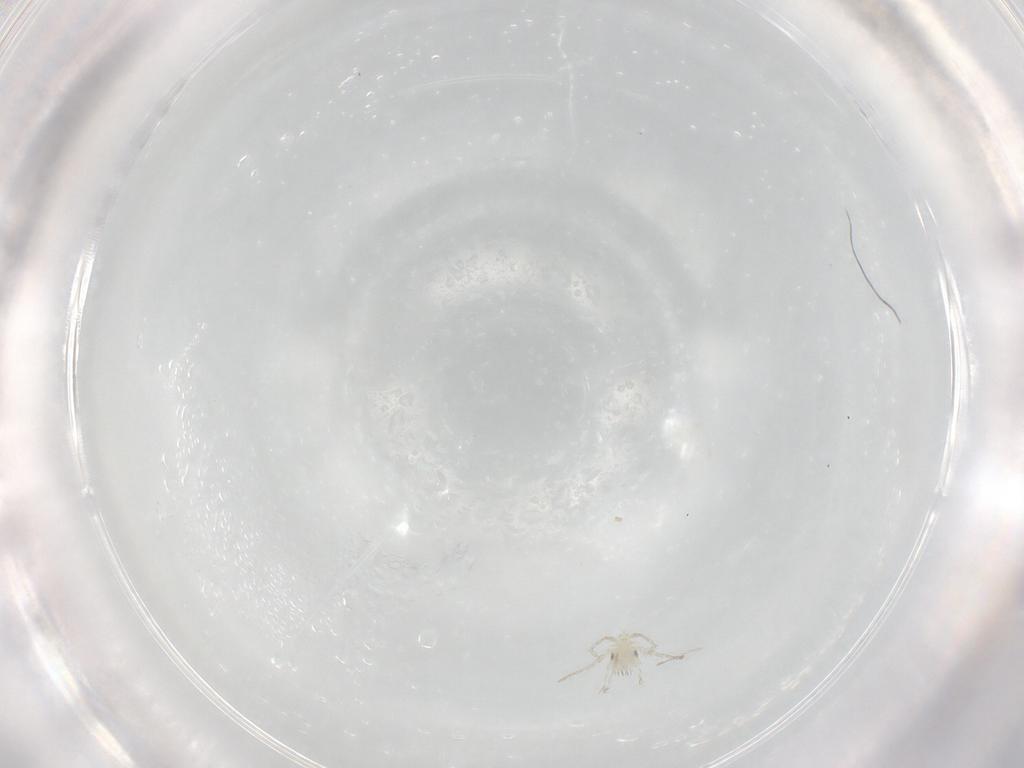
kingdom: Animalia
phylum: Arthropoda
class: Arachnida
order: Trombidiformes
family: Erythraeidae
